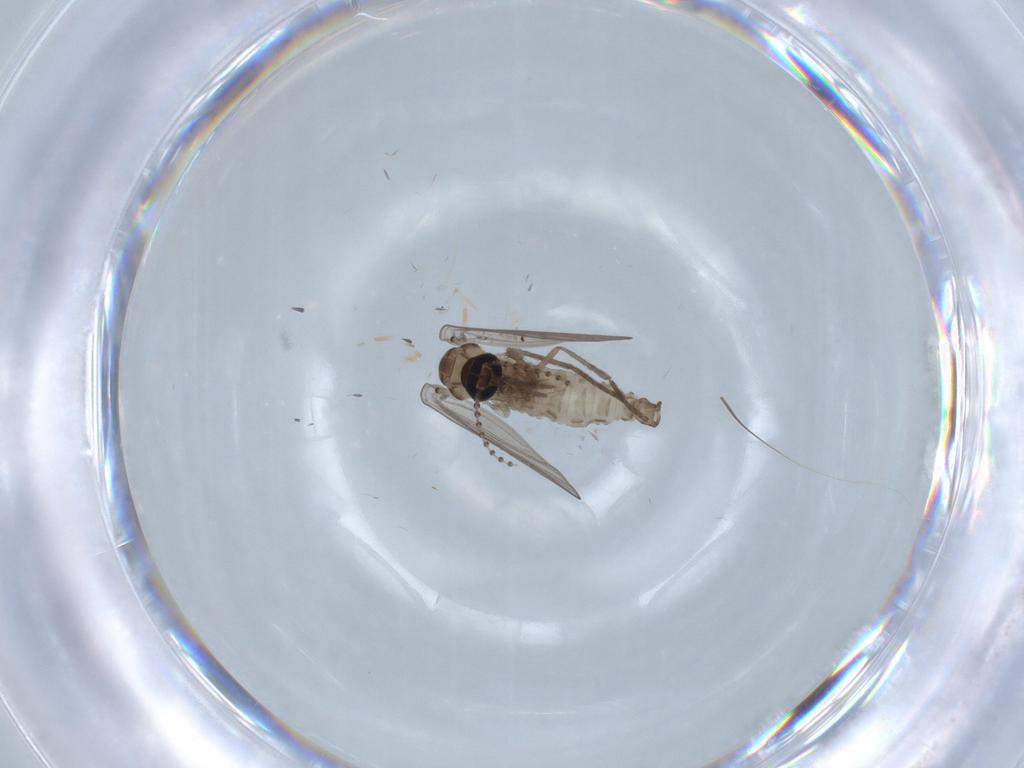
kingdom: Animalia
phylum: Arthropoda
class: Insecta
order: Diptera
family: Psychodidae
